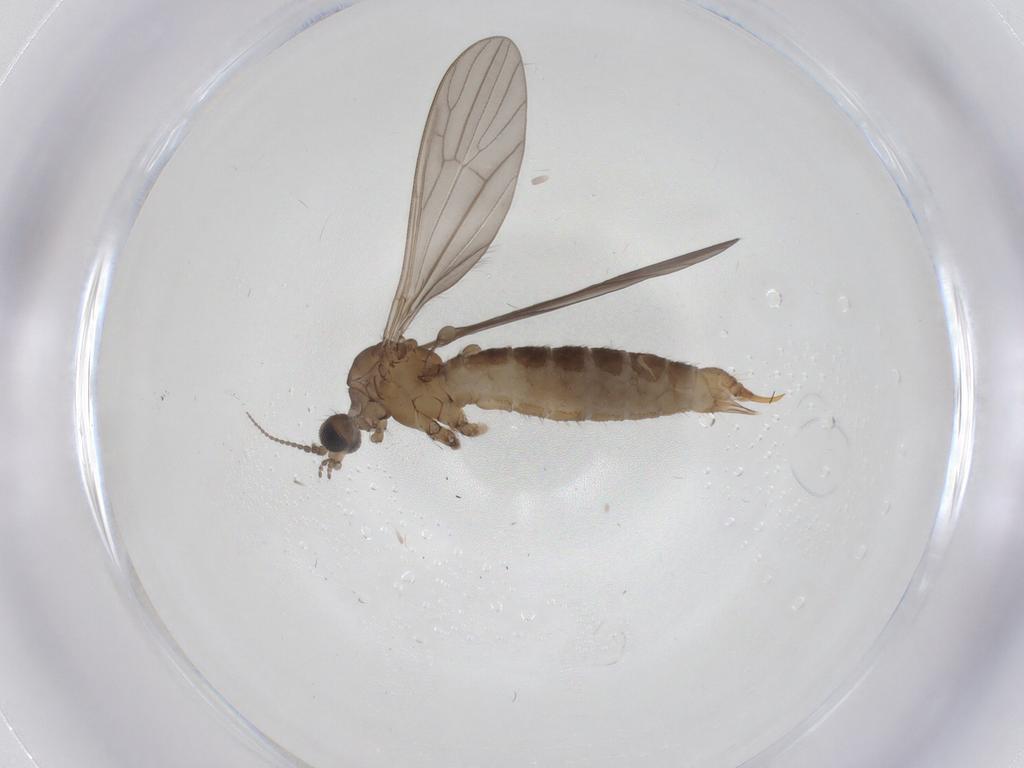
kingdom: Animalia
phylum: Arthropoda
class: Insecta
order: Diptera
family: Limoniidae
